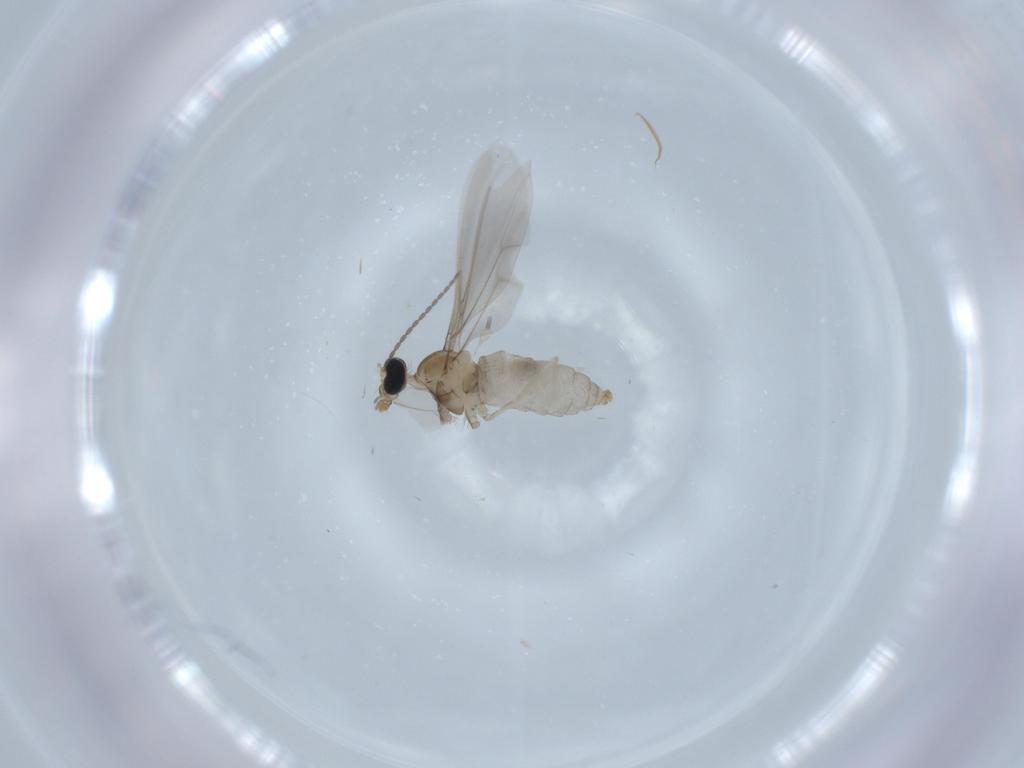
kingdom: Animalia
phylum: Arthropoda
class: Insecta
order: Diptera
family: Cecidomyiidae
